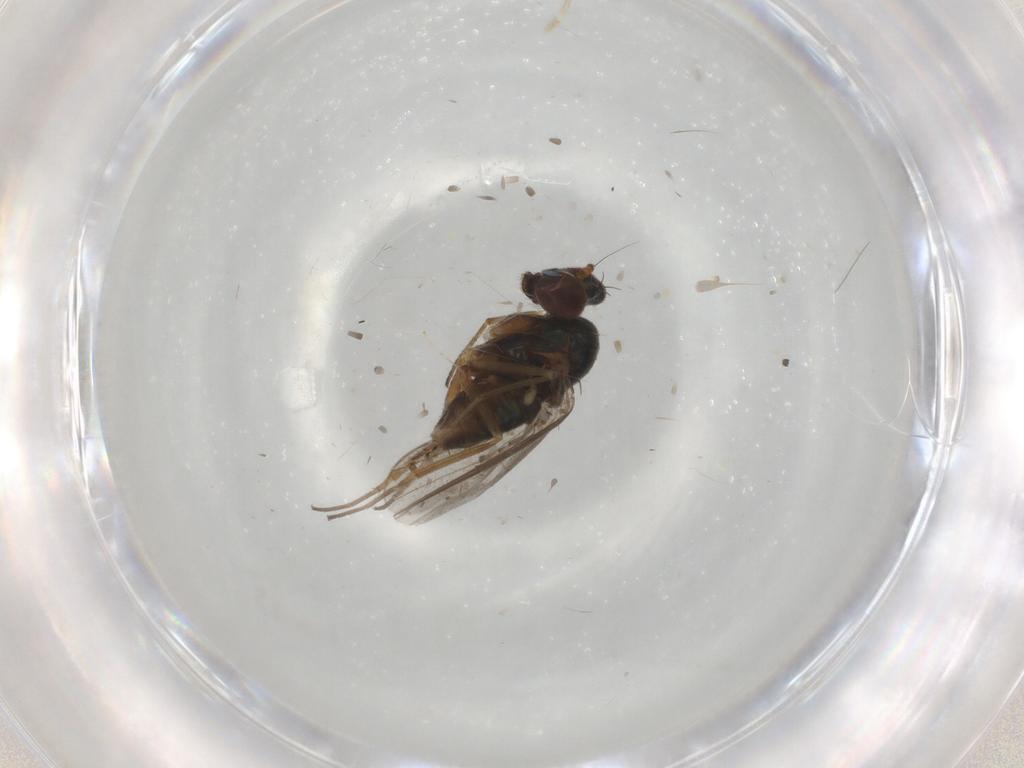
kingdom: Animalia
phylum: Arthropoda
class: Insecta
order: Diptera
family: Dolichopodidae
